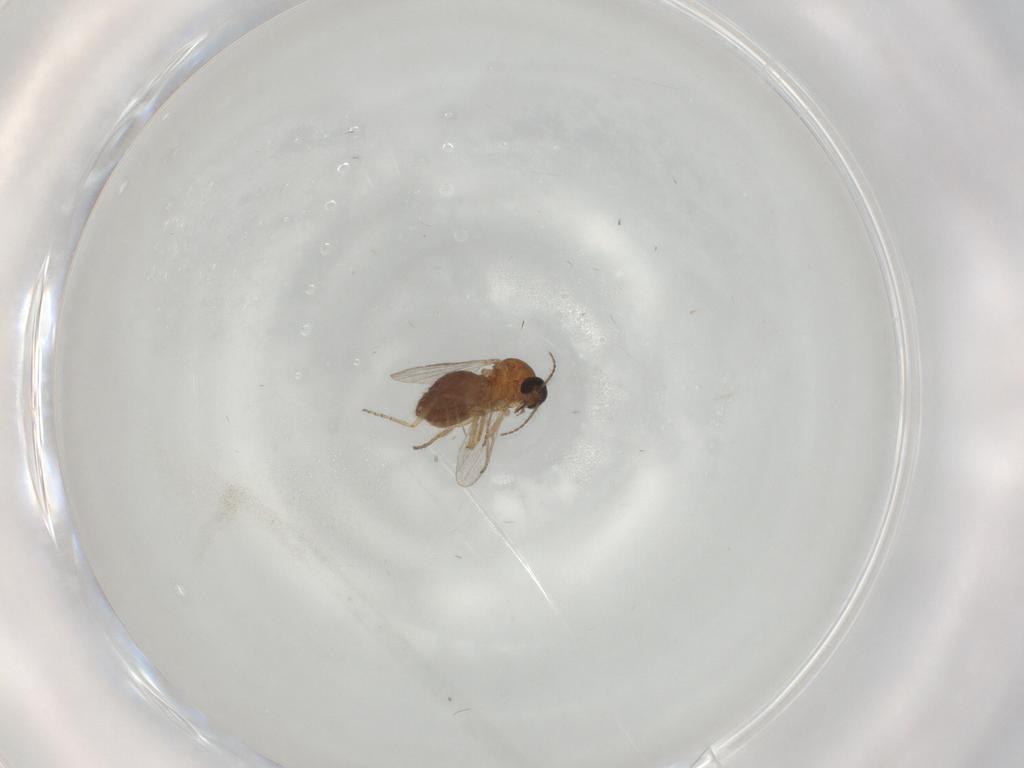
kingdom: Animalia
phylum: Arthropoda
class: Insecta
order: Diptera
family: Ceratopogonidae
